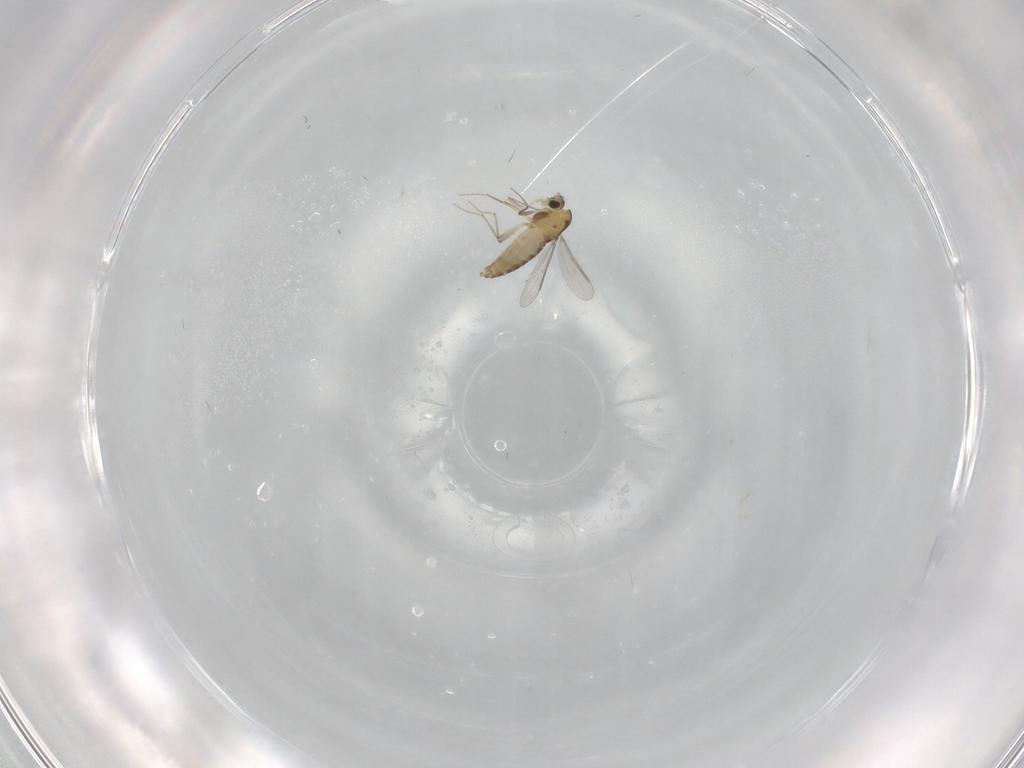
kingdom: Animalia
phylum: Arthropoda
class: Insecta
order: Diptera
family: Chironomidae
